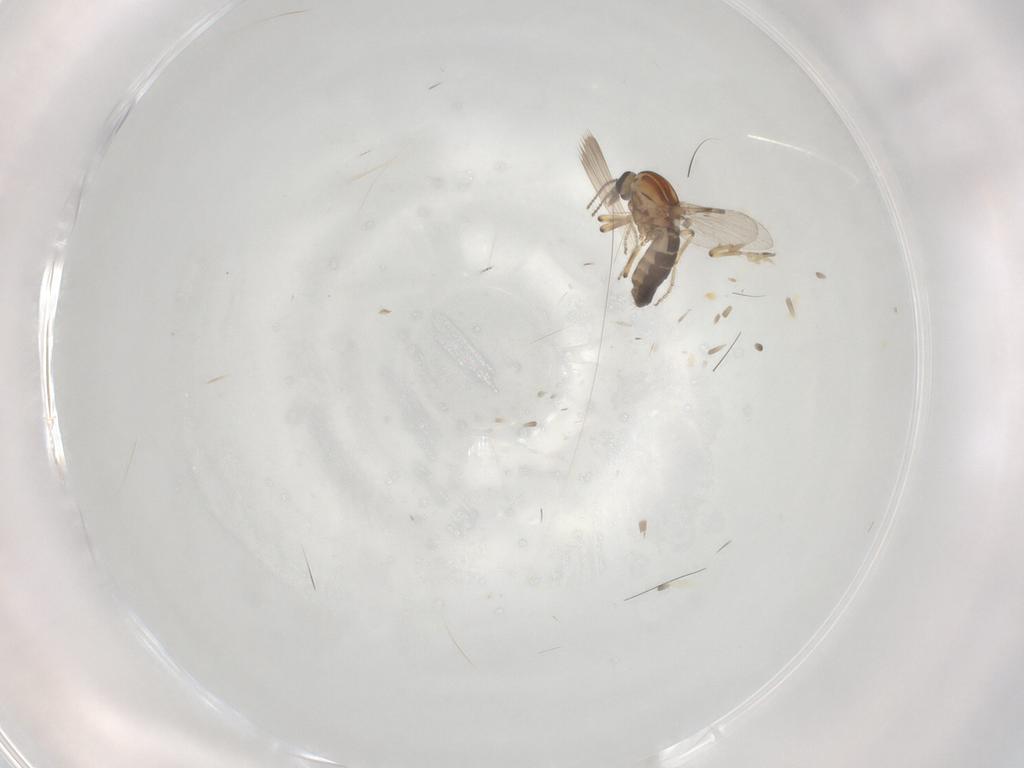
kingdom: Animalia
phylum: Arthropoda
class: Insecta
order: Diptera
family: Ceratopogonidae
